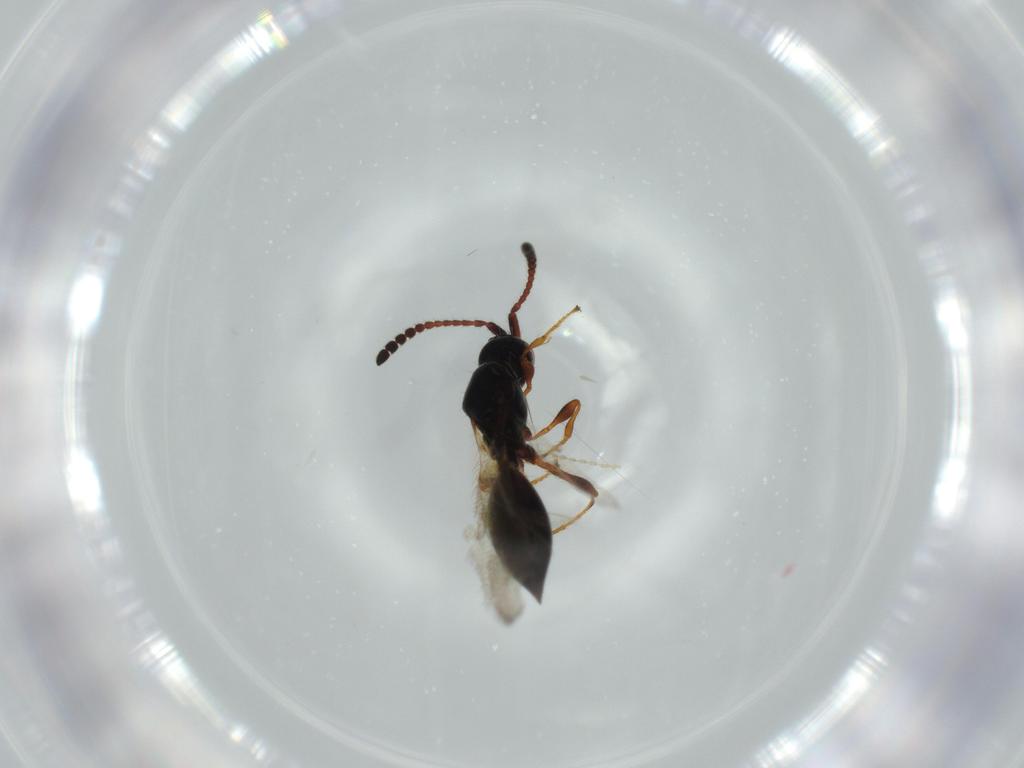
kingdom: Animalia
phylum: Arthropoda
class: Insecta
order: Hymenoptera
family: Diapriidae
